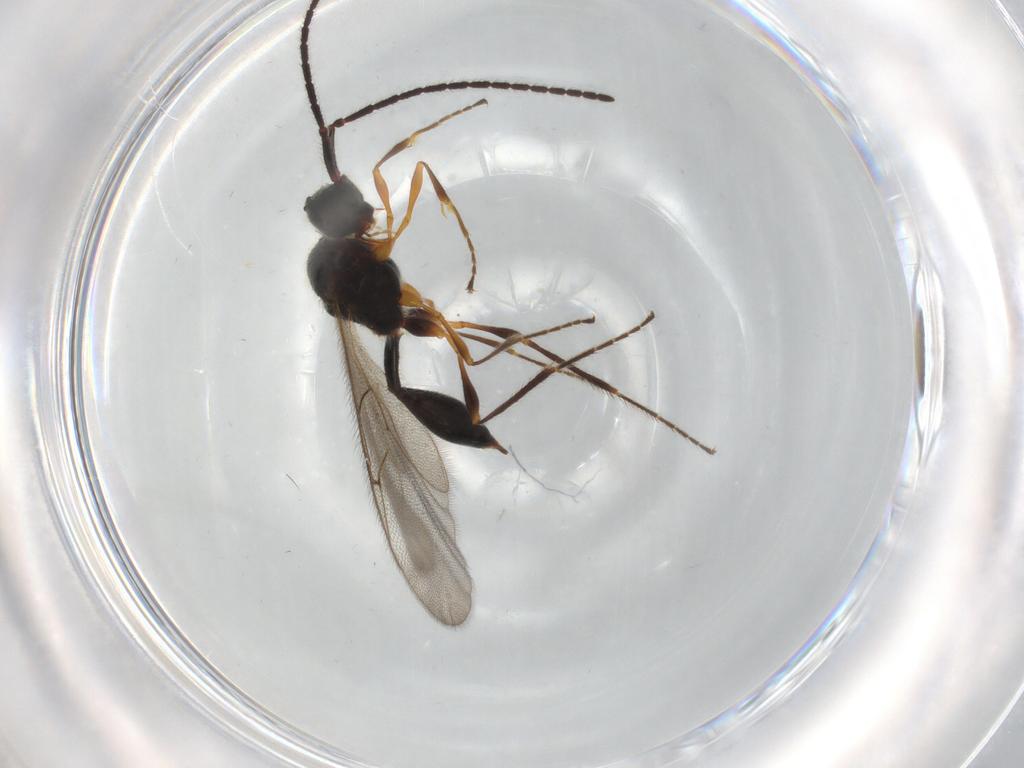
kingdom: Animalia
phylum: Arthropoda
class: Insecta
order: Hymenoptera
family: Diapriidae
